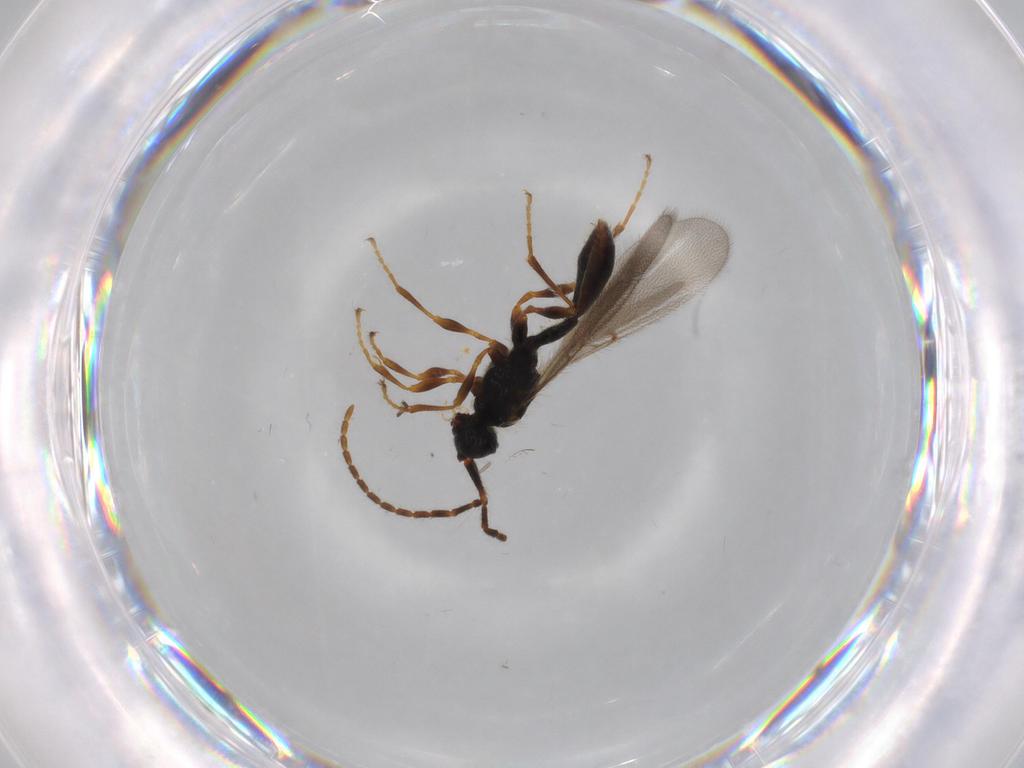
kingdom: Animalia
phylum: Arthropoda
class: Insecta
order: Hymenoptera
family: Diapriidae
